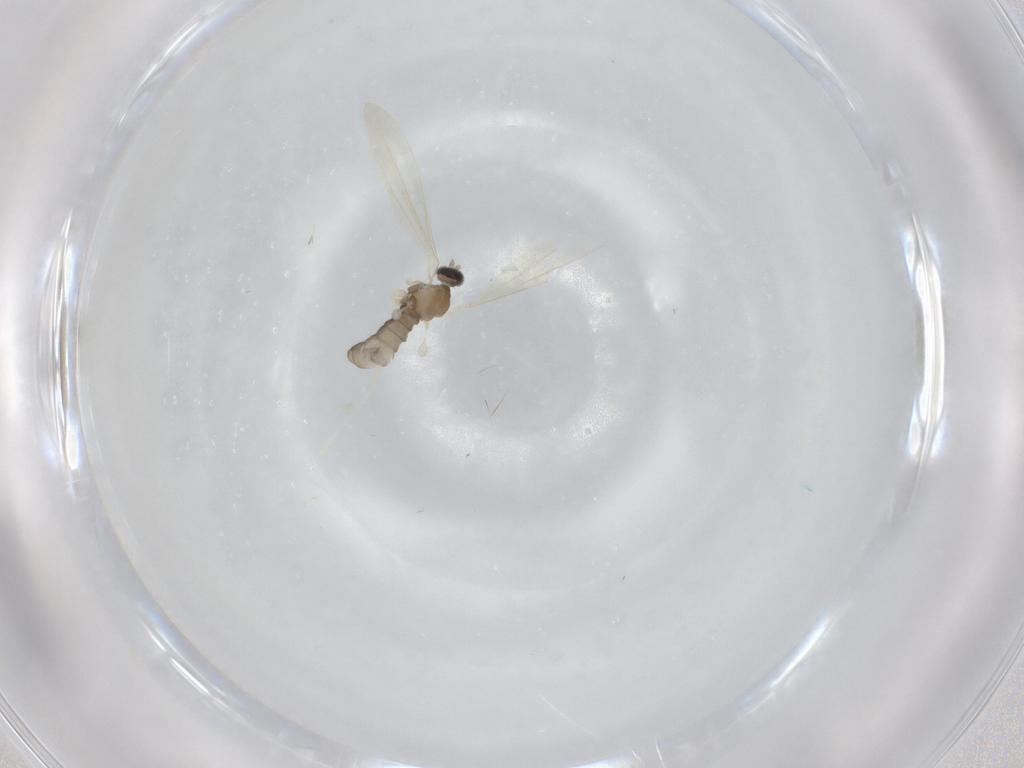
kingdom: Animalia
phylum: Arthropoda
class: Insecta
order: Diptera
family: Cecidomyiidae
